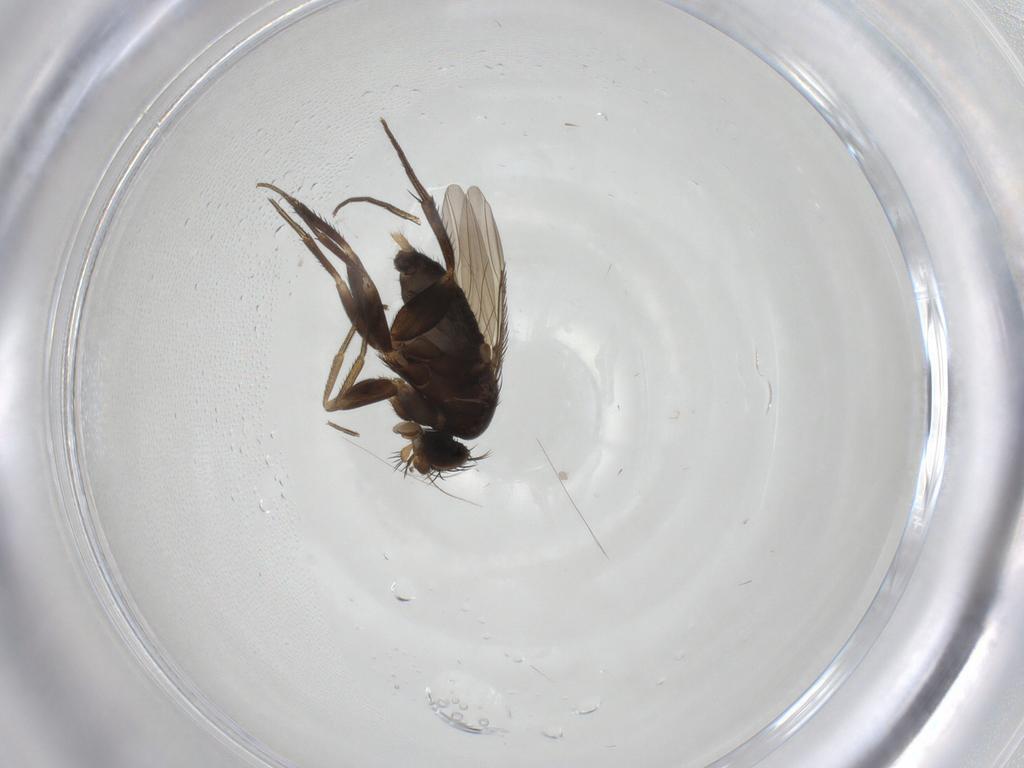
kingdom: Animalia
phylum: Arthropoda
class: Insecta
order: Diptera
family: Phoridae
